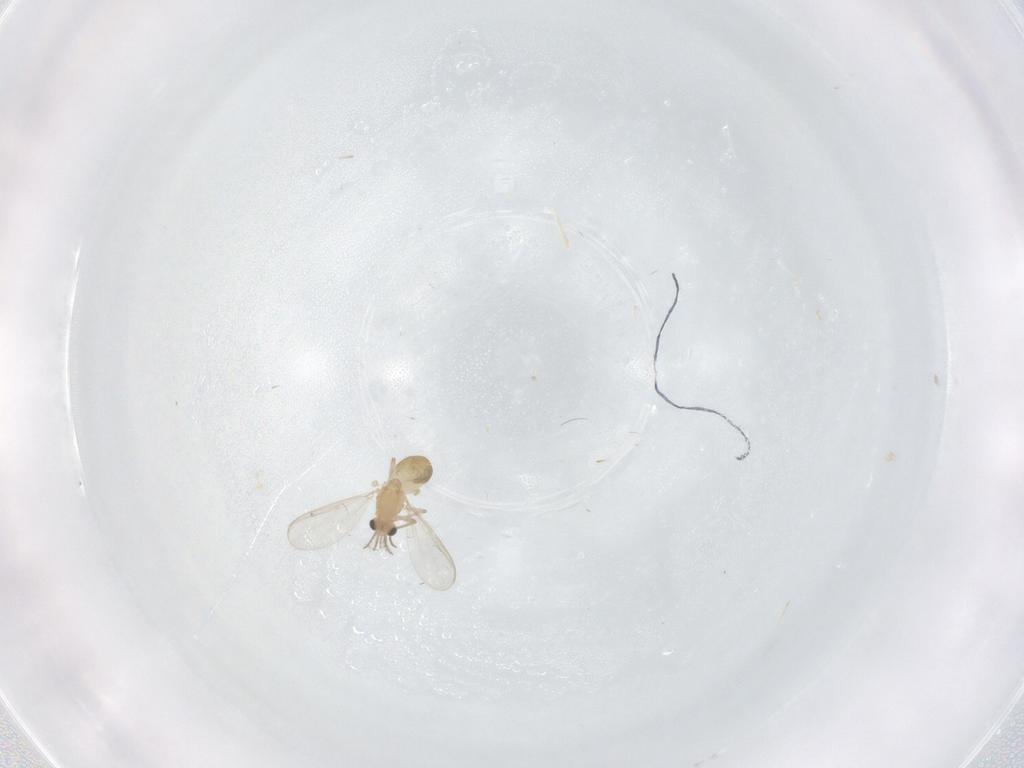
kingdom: Animalia
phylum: Arthropoda
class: Insecta
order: Diptera
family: Chironomidae
